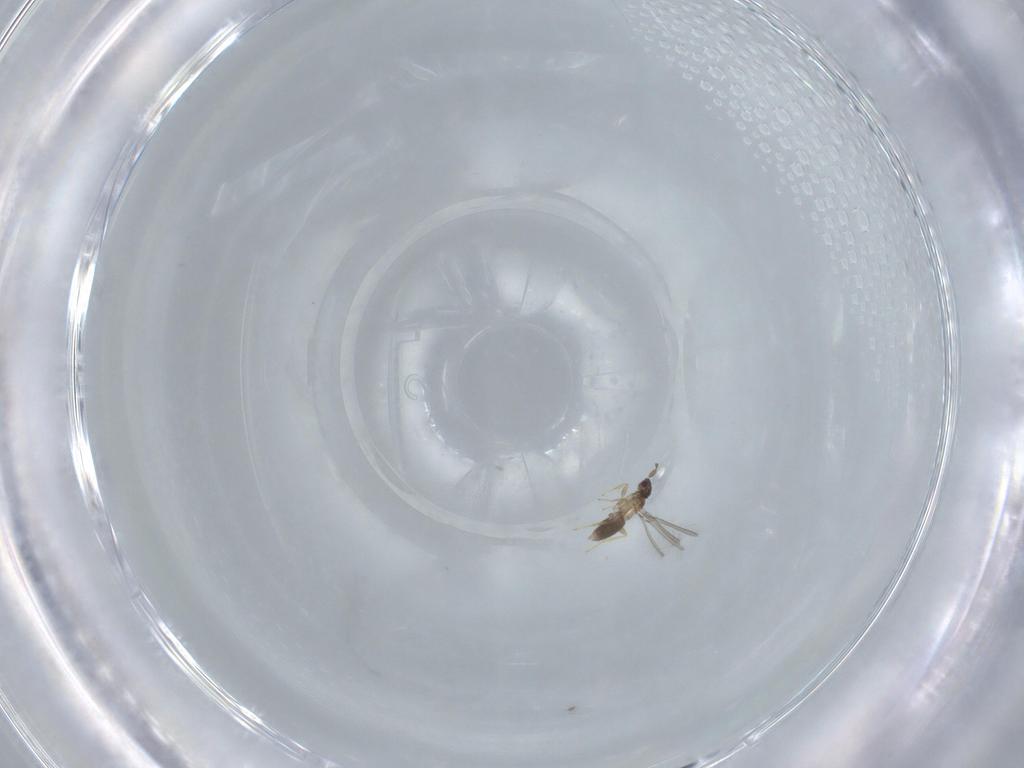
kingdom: Animalia
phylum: Arthropoda
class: Insecta
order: Hymenoptera
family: Mymaridae
